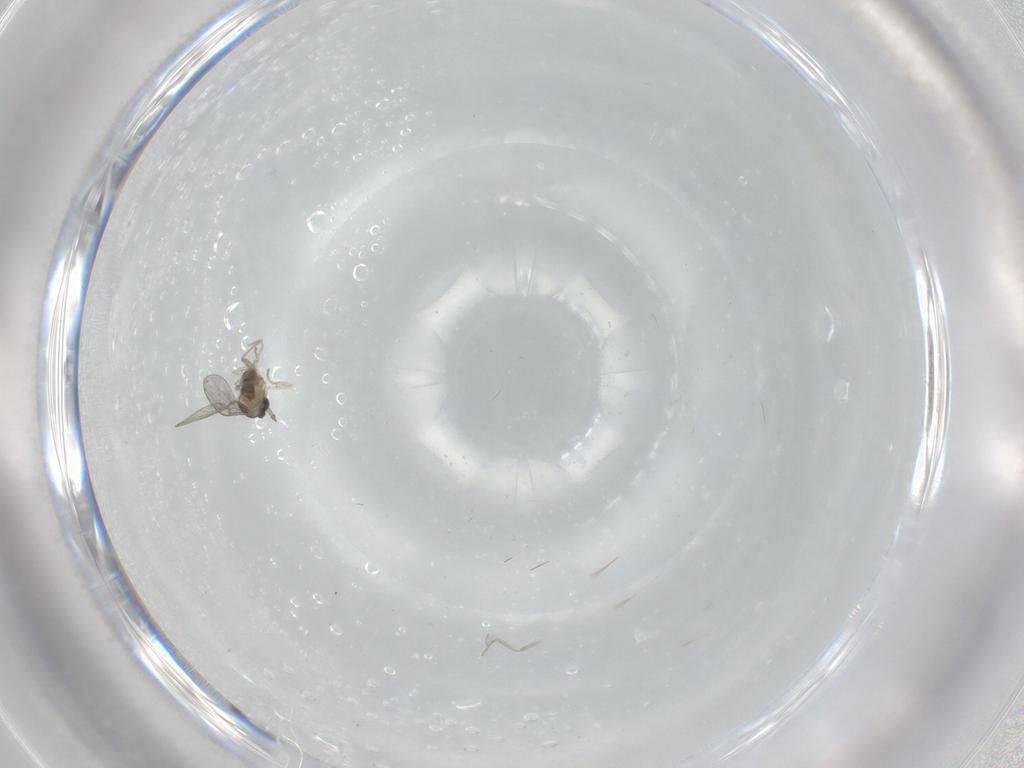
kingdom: Animalia
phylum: Arthropoda
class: Insecta
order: Diptera
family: Cecidomyiidae
